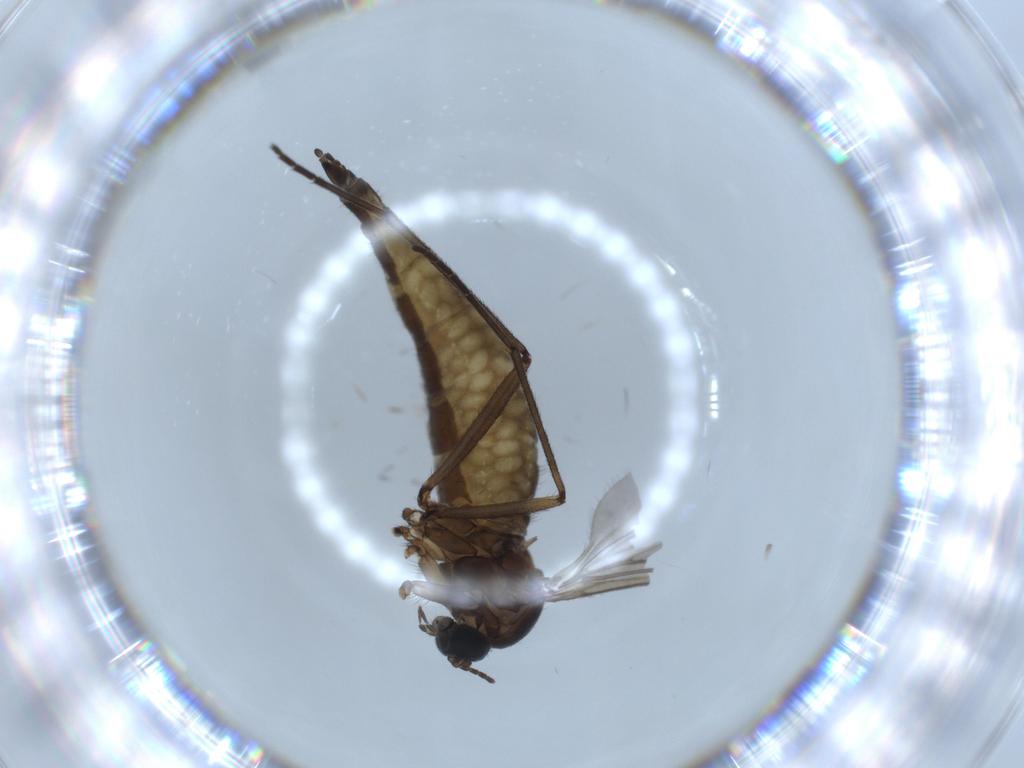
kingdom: Animalia
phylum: Arthropoda
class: Insecta
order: Diptera
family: Sciaridae
